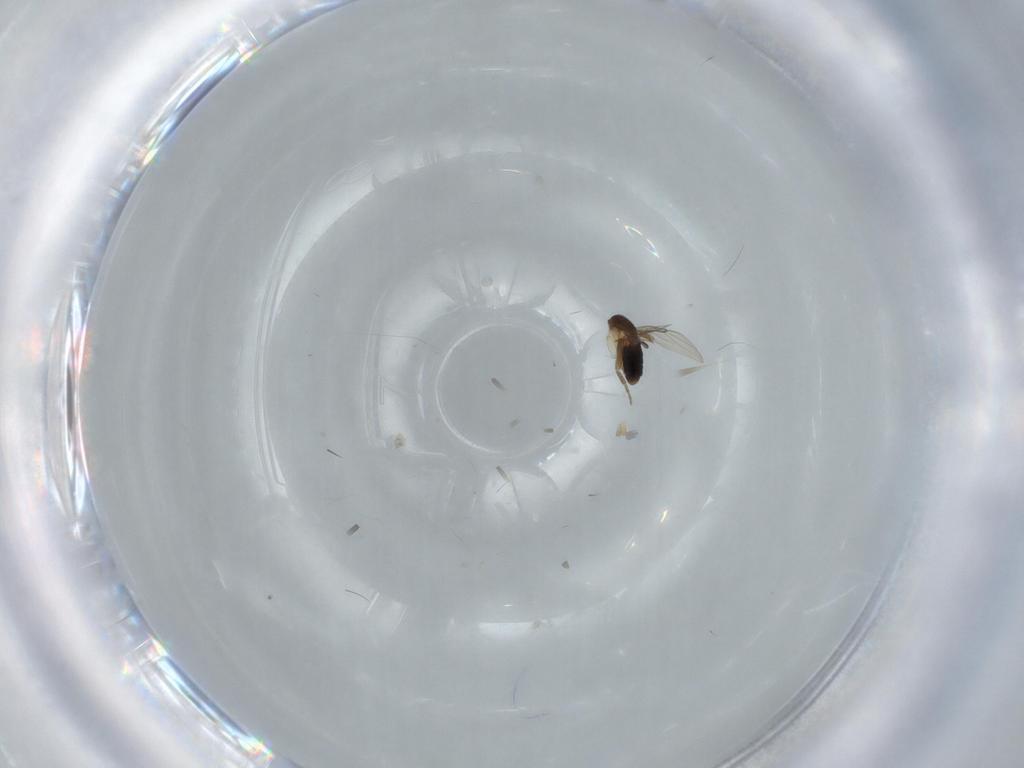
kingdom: Animalia
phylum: Arthropoda
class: Insecta
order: Diptera
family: Phoridae
